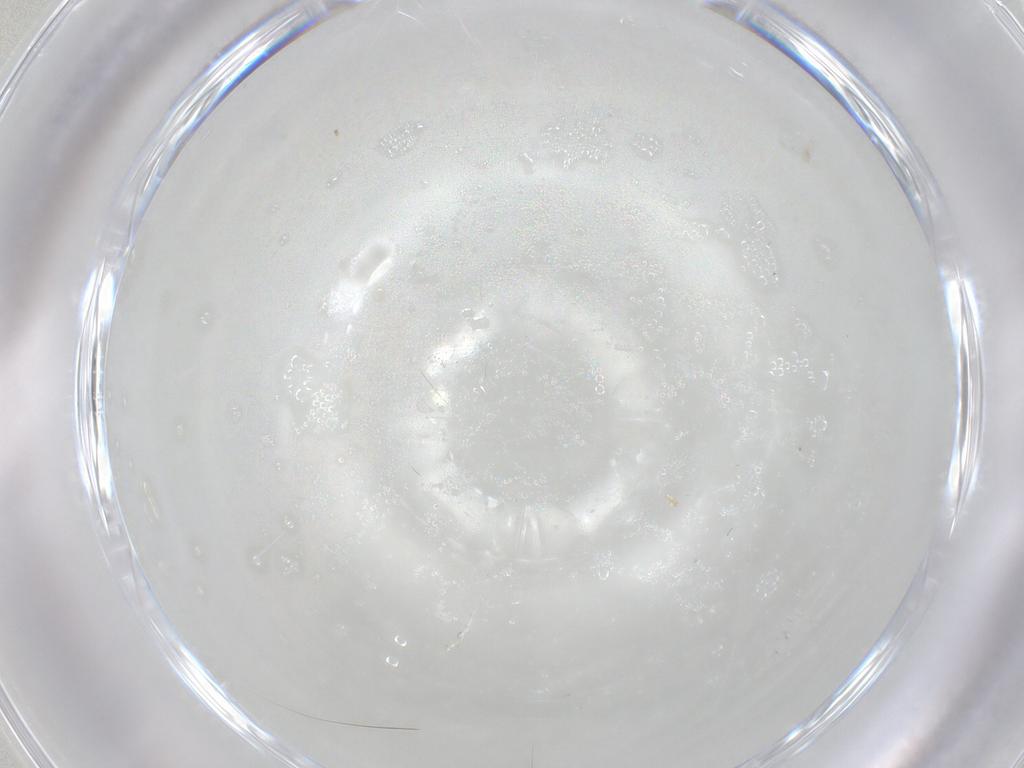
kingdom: Animalia
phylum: Arthropoda
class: Insecta
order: Diptera
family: Cecidomyiidae
